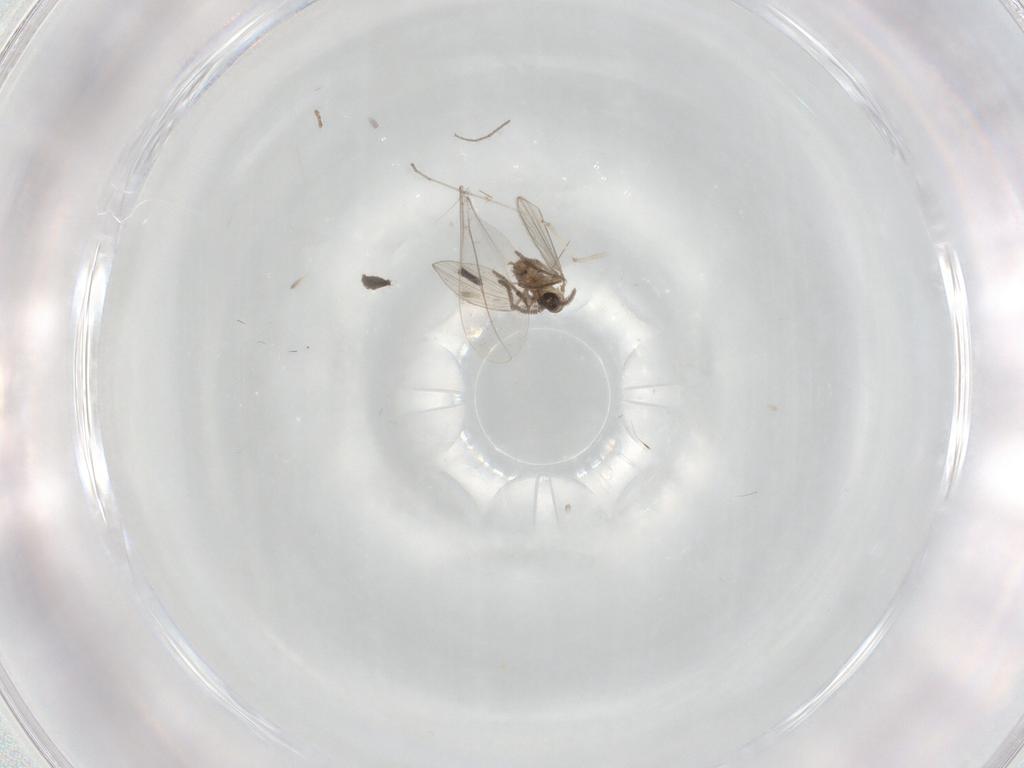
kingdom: Animalia
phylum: Arthropoda
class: Insecta
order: Diptera
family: Psychodidae
